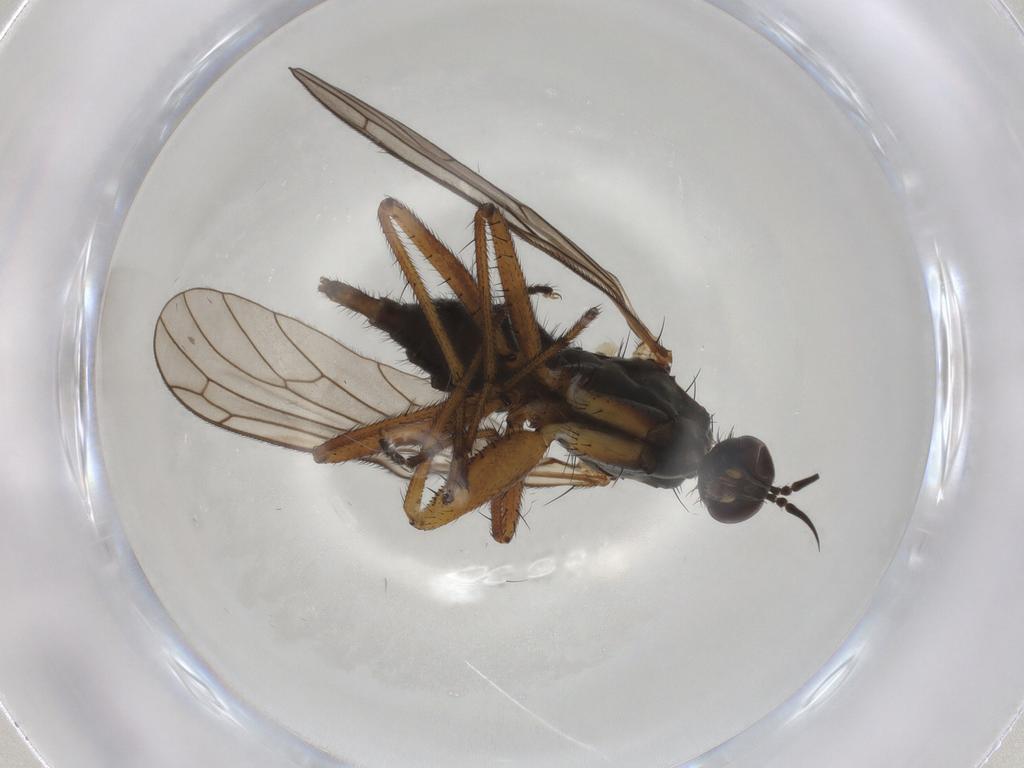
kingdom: Animalia
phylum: Arthropoda
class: Insecta
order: Diptera
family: Empididae
